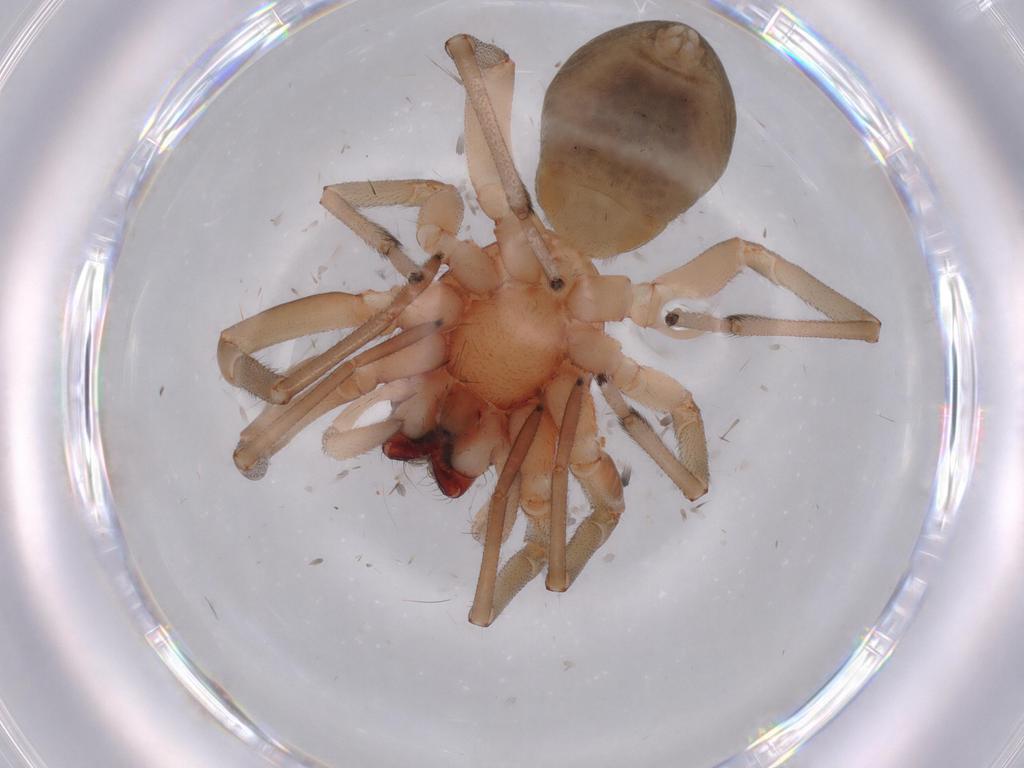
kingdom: Animalia
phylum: Arthropoda
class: Arachnida
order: Araneae
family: Trachelidae
